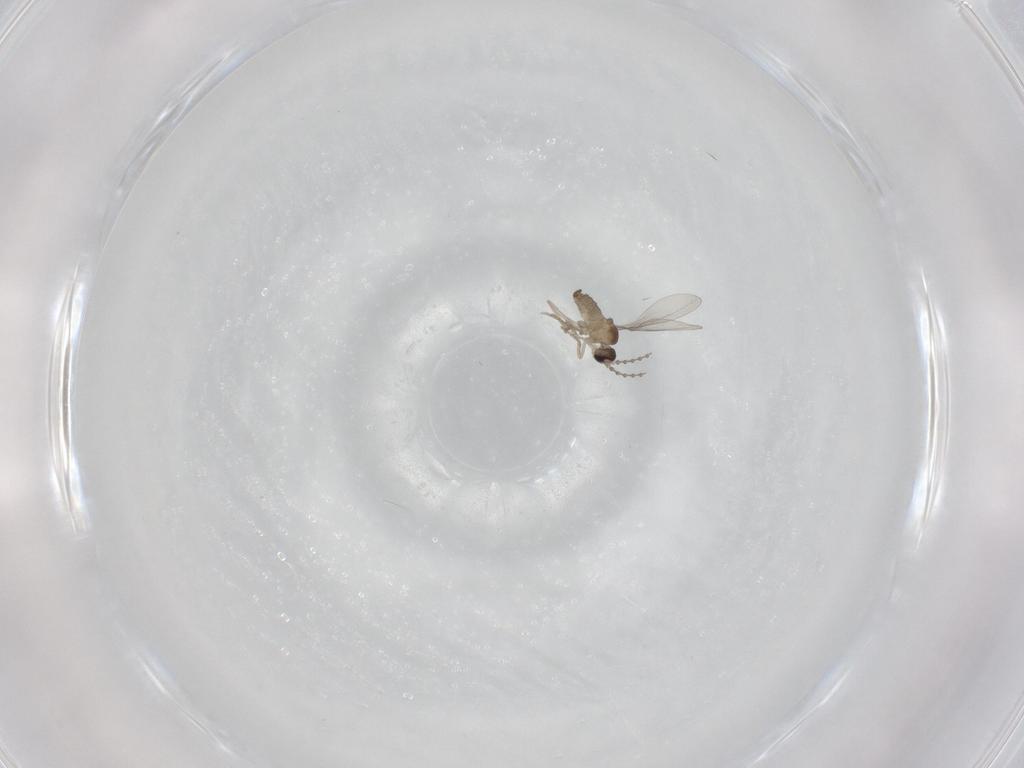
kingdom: Animalia
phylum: Arthropoda
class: Insecta
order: Diptera
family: Cecidomyiidae
